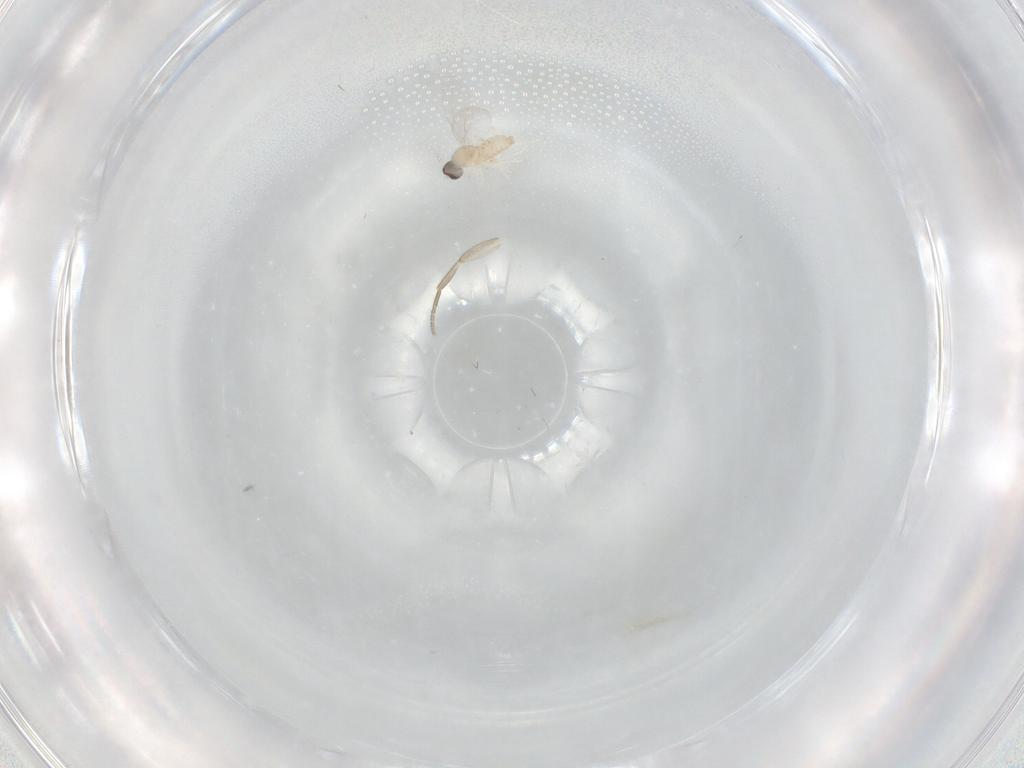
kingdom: Animalia
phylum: Arthropoda
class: Insecta
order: Diptera
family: Cecidomyiidae
